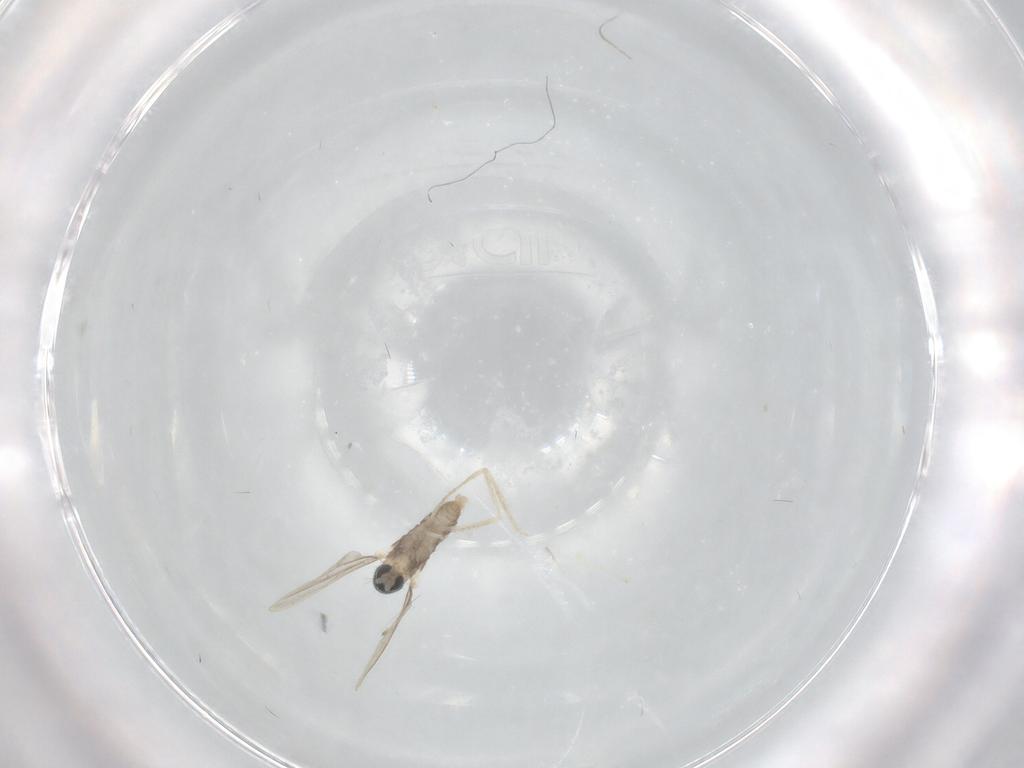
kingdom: Animalia
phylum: Arthropoda
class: Insecta
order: Diptera
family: Cecidomyiidae
